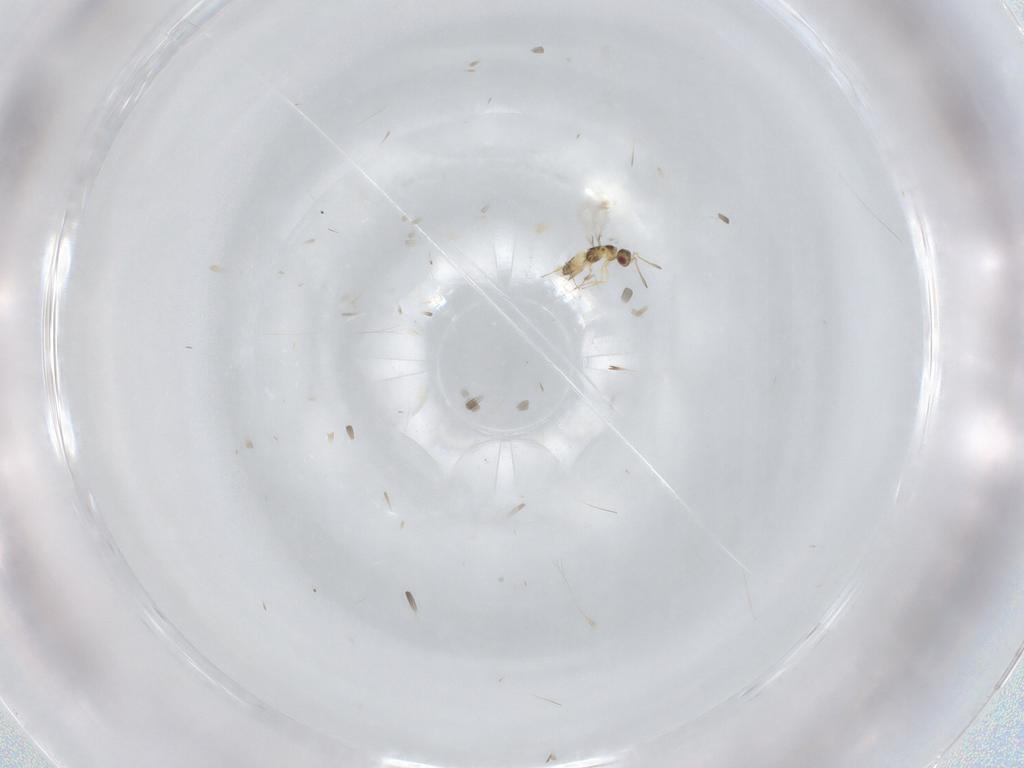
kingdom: Animalia
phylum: Arthropoda
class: Insecta
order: Hymenoptera
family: Mymaridae
